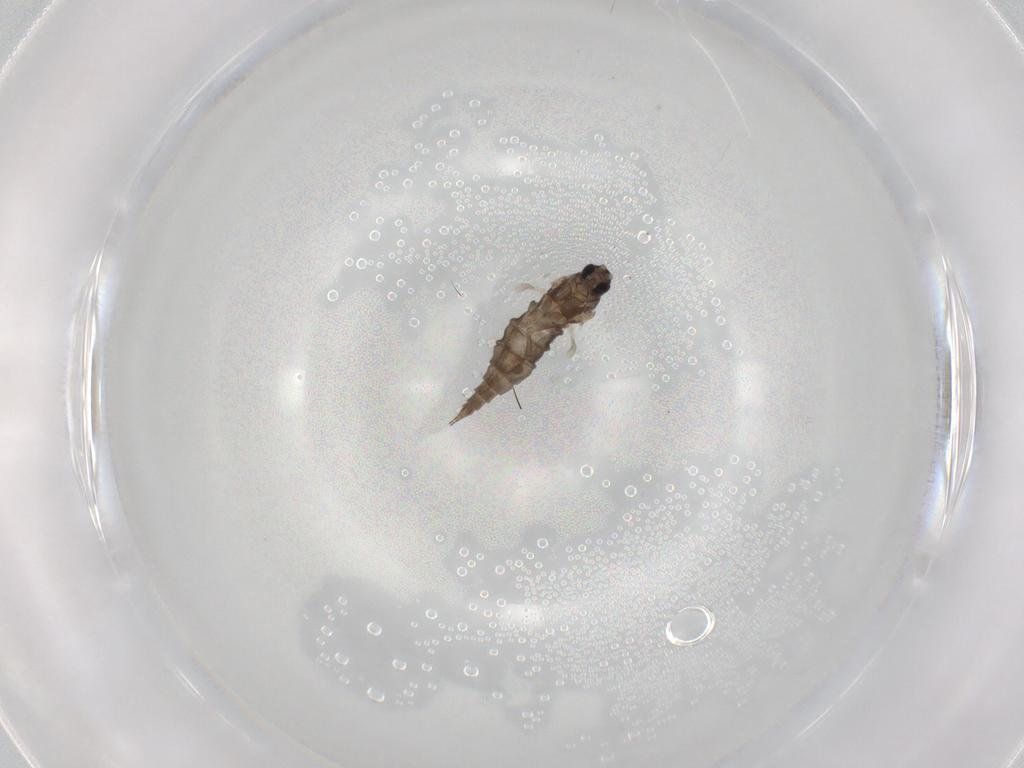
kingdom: Animalia
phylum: Arthropoda
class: Insecta
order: Diptera
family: Cecidomyiidae
